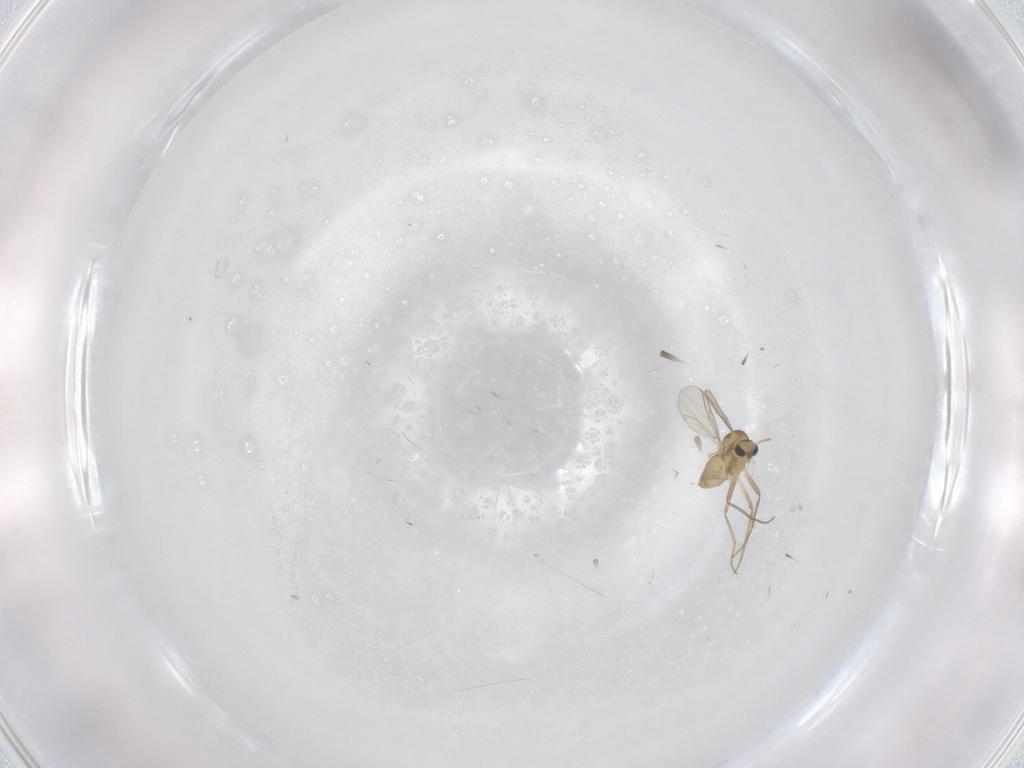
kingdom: Animalia
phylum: Arthropoda
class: Insecta
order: Diptera
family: Chironomidae
